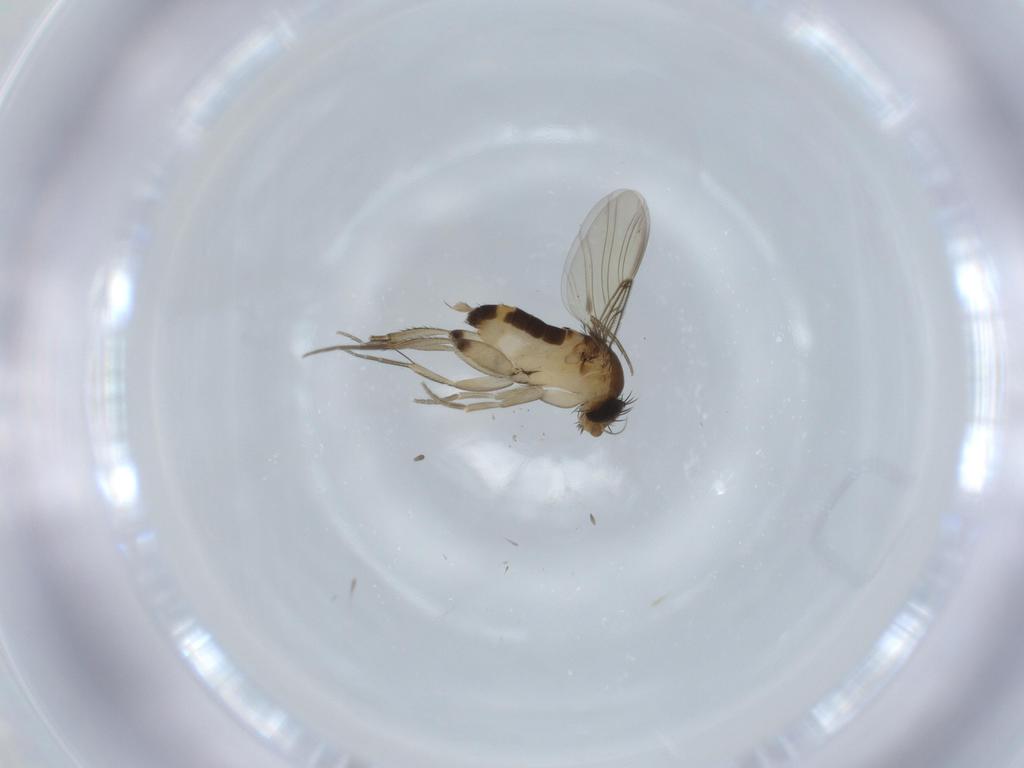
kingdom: Animalia
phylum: Arthropoda
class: Insecta
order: Diptera
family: Phoridae
